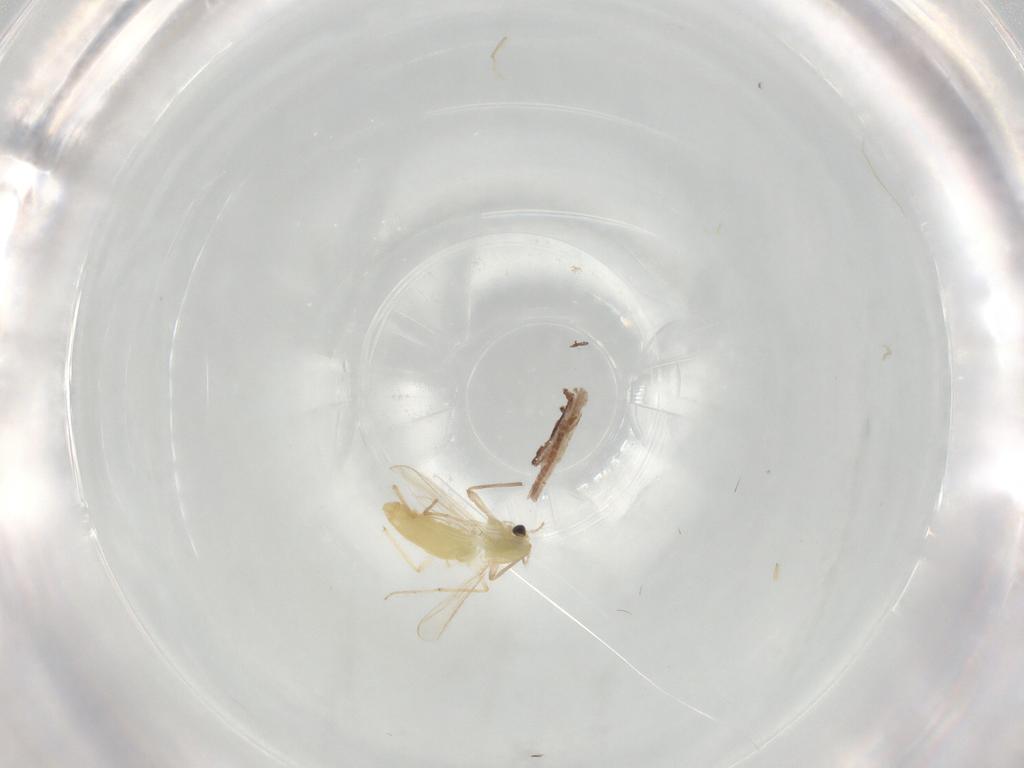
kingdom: Animalia
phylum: Arthropoda
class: Insecta
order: Diptera
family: Chironomidae
